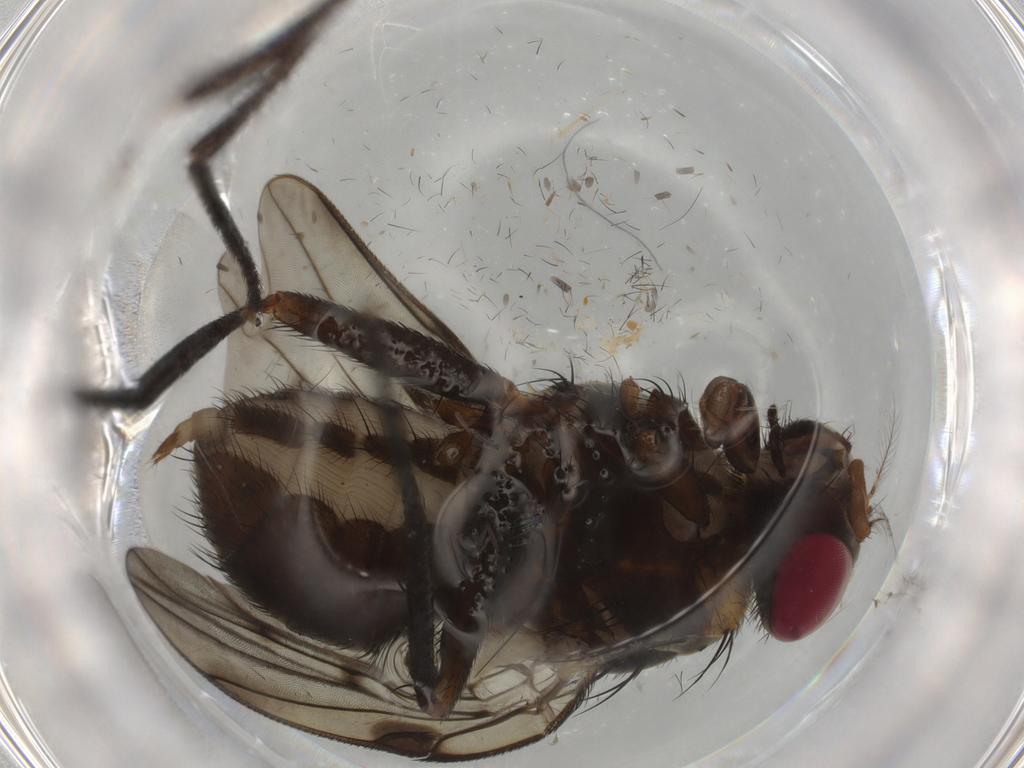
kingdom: Animalia
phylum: Arthropoda
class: Insecta
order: Diptera
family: Muscidae
